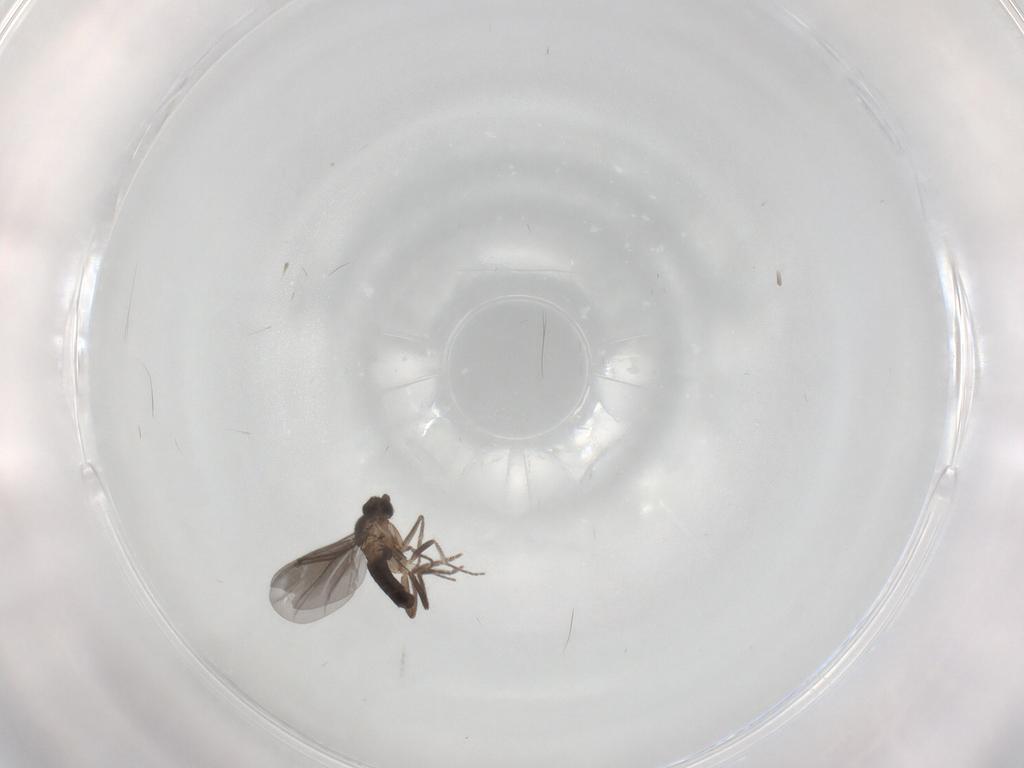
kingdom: Animalia
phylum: Arthropoda
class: Insecta
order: Diptera
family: Phoridae
